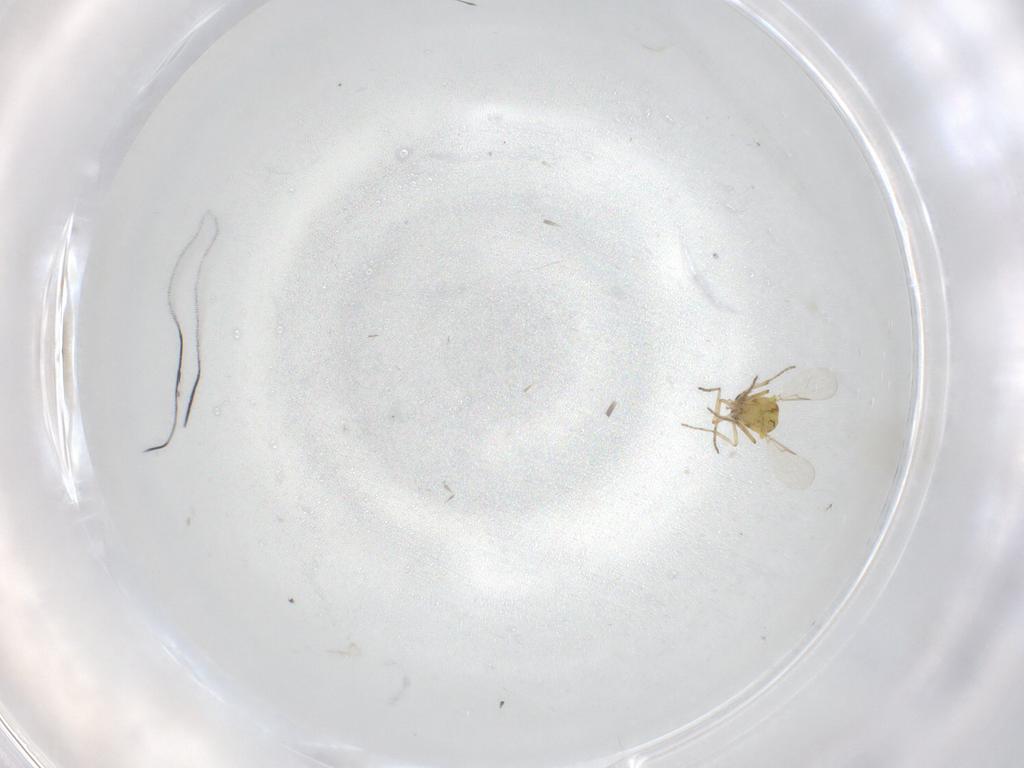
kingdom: Animalia
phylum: Arthropoda
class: Insecta
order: Diptera
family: Ceratopogonidae
